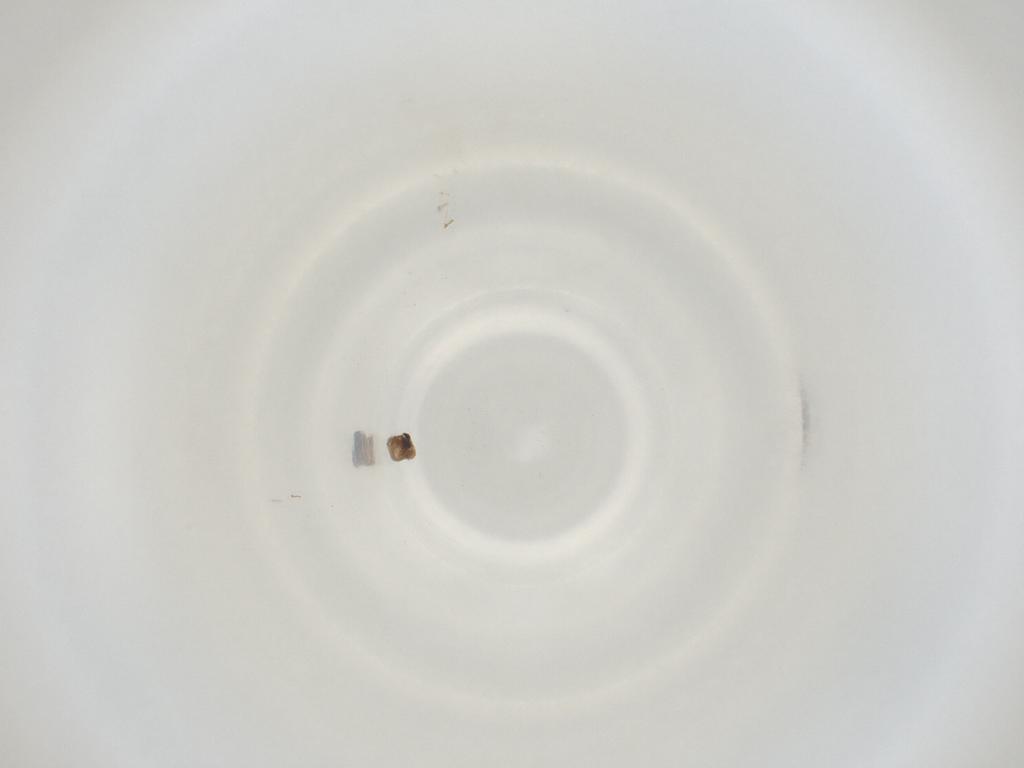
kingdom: Animalia
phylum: Arthropoda
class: Insecta
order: Diptera
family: Cecidomyiidae
